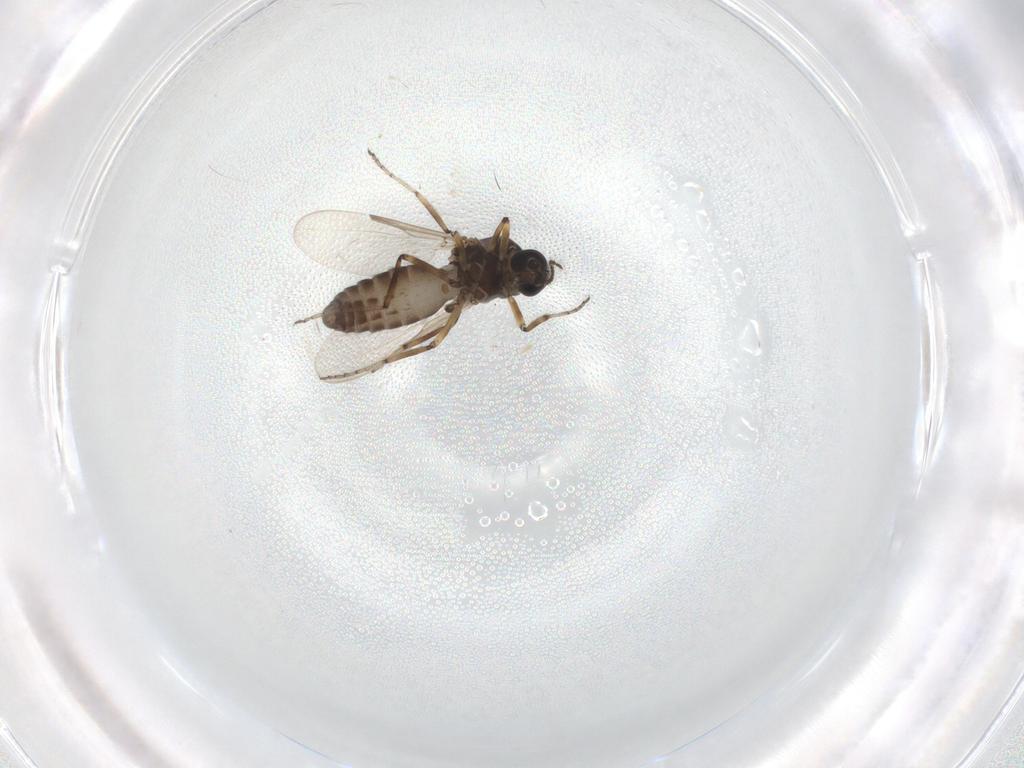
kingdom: Animalia
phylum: Arthropoda
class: Insecta
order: Diptera
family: Ceratopogonidae
